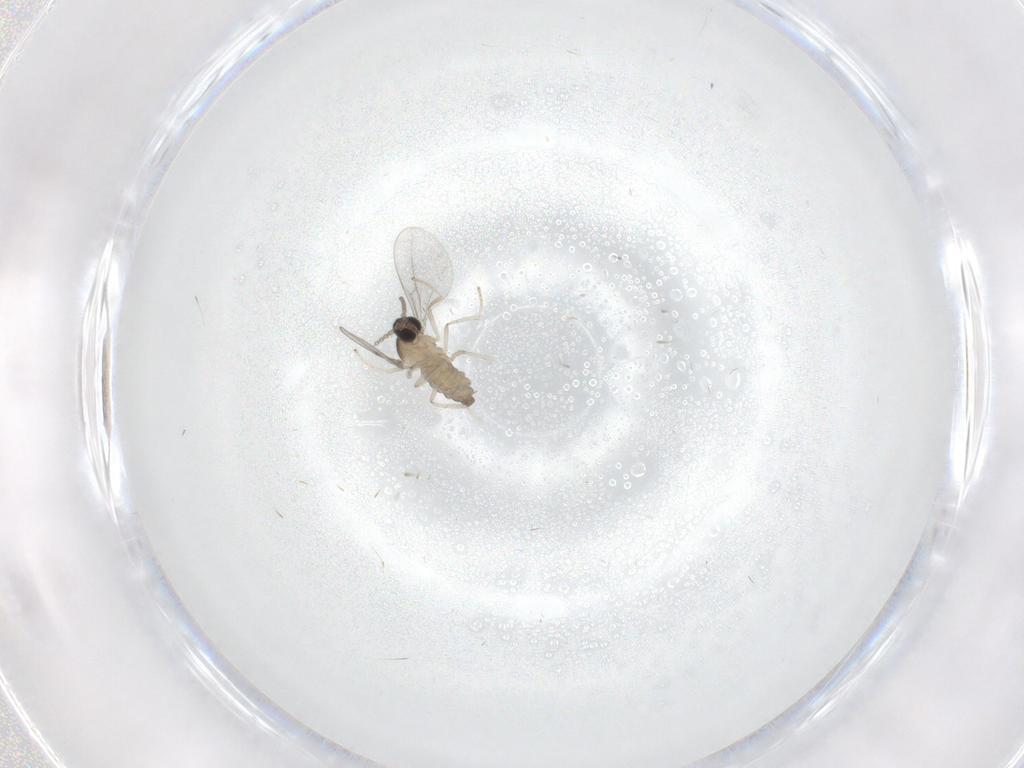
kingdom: Animalia
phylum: Arthropoda
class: Insecta
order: Diptera
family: Cecidomyiidae
